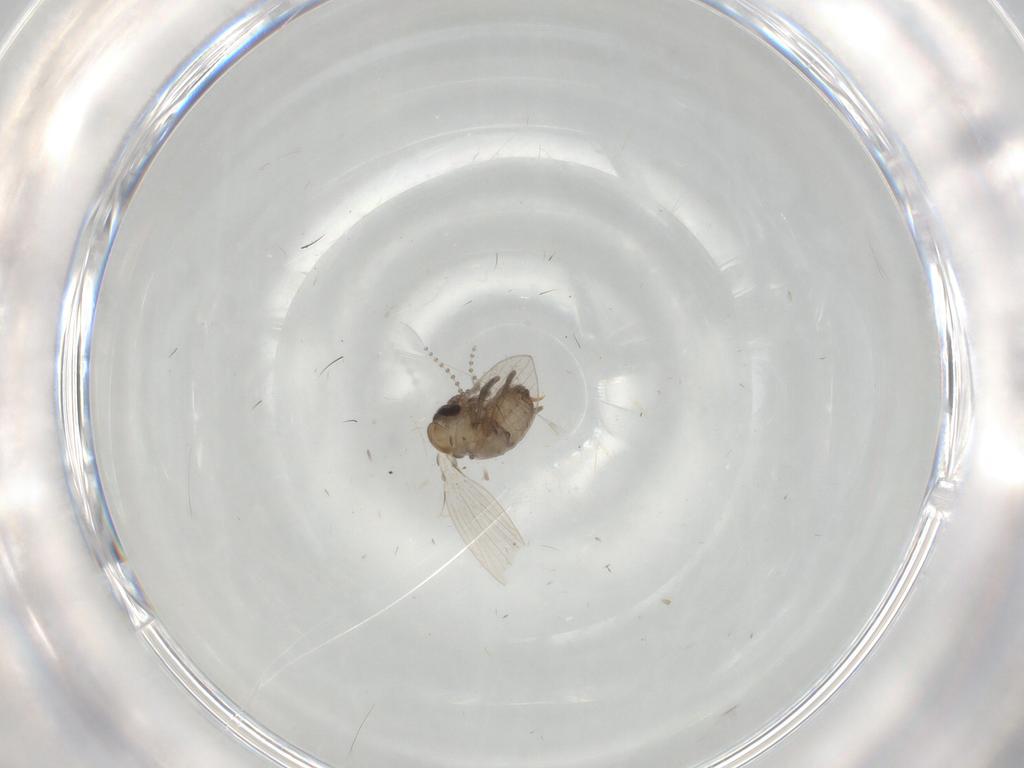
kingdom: Animalia
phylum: Arthropoda
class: Insecta
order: Diptera
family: Psychodidae
